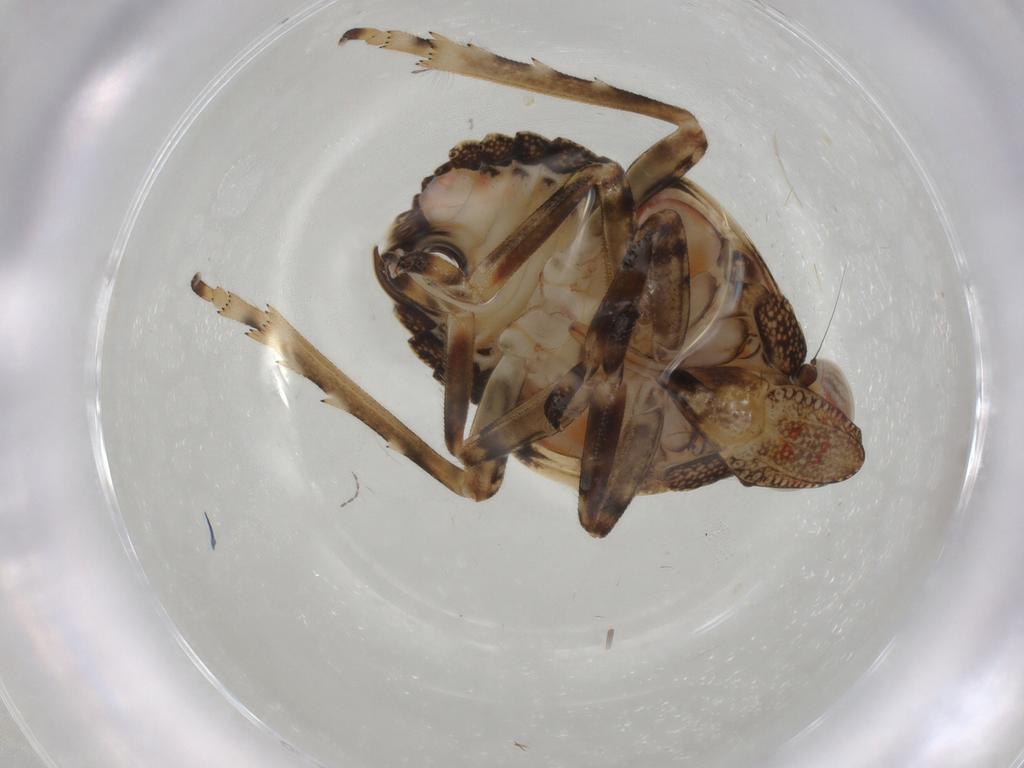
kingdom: Animalia
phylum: Arthropoda
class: Insecta
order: Hemiptera
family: Tropiduchidae
